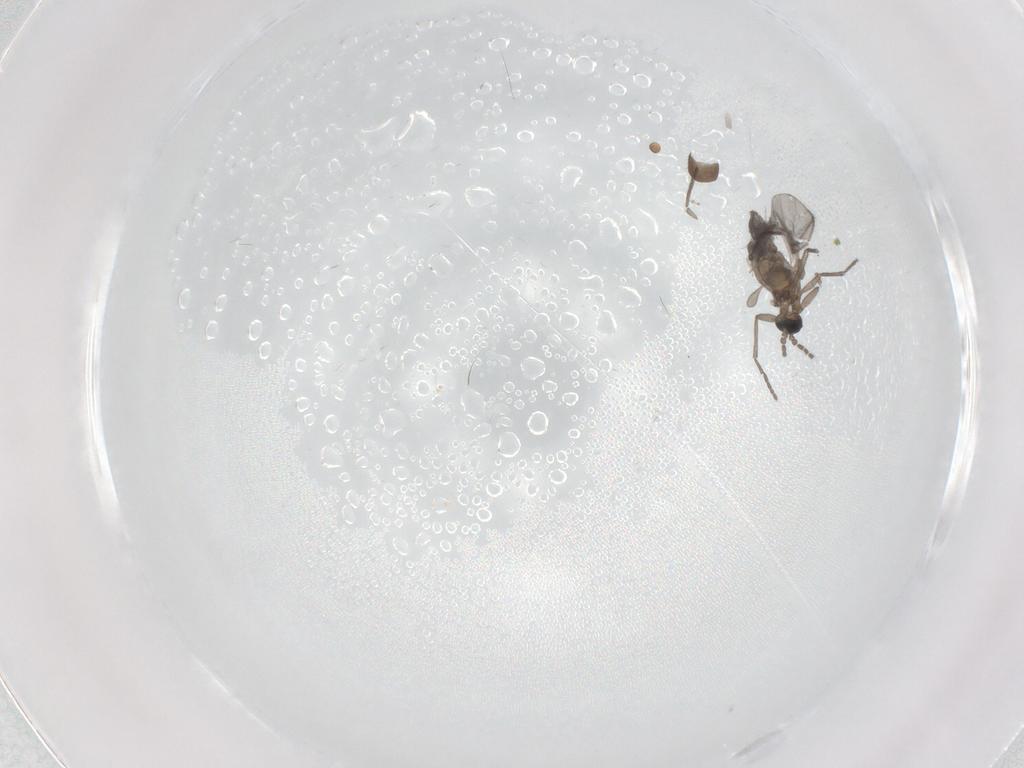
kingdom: Animalia
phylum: Arthropoda
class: Insecta
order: Diptera
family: Sciaridae
